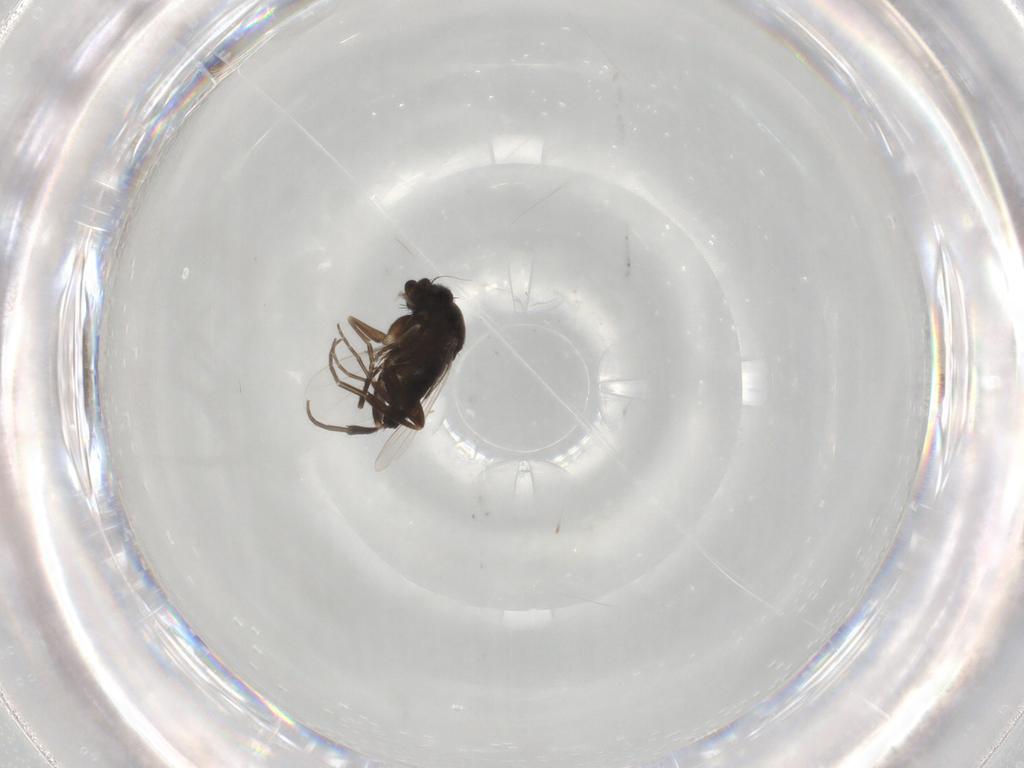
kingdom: Animalia
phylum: Arthropoda
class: Insecta
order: Diptera
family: Phoridae
